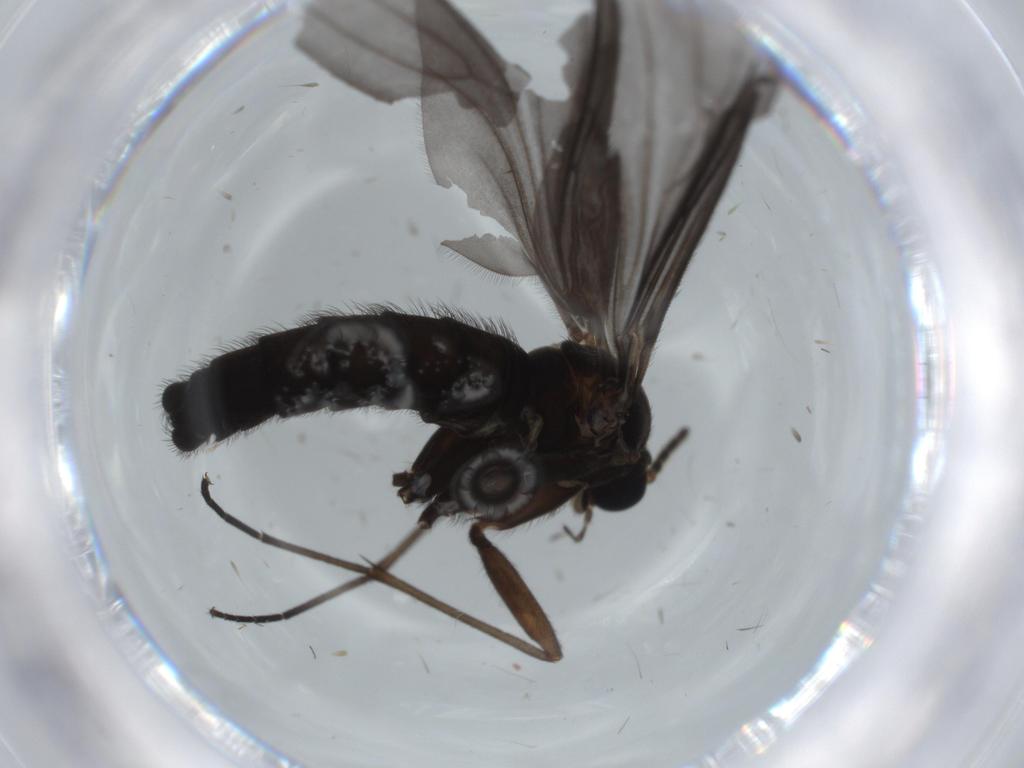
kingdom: Animalia
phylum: Arthropoda
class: Insecta
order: Diptera
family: Sciaridae
